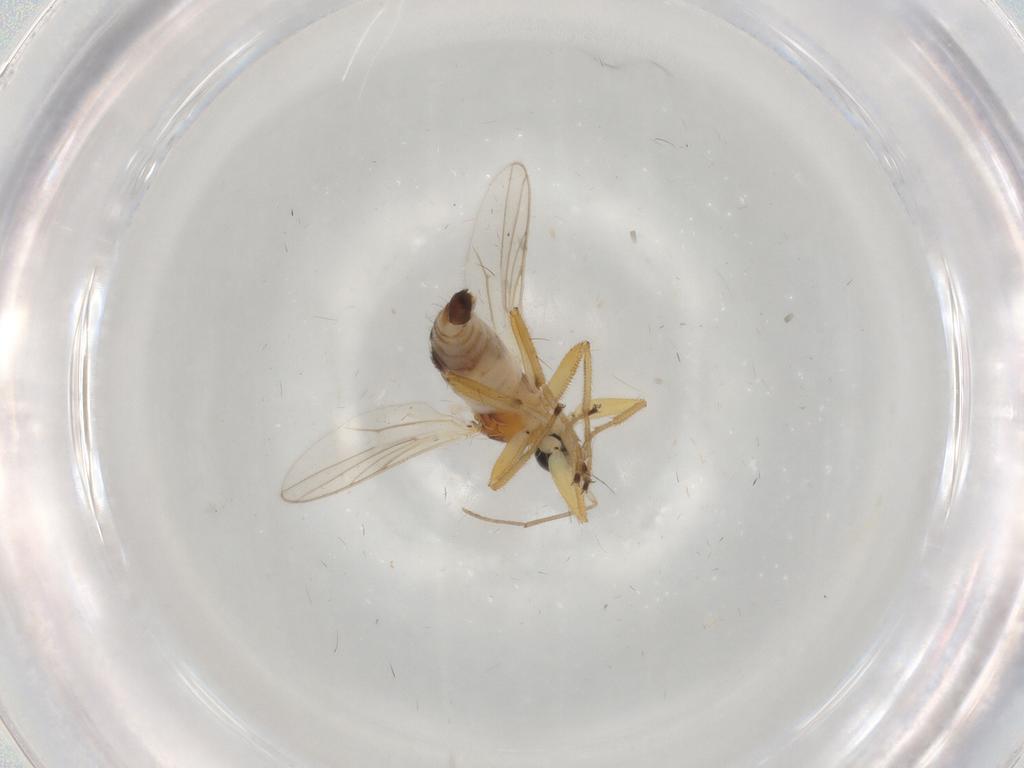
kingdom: Animalia
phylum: Arthropoda
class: Insecta
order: Diptera
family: Hybotidae
